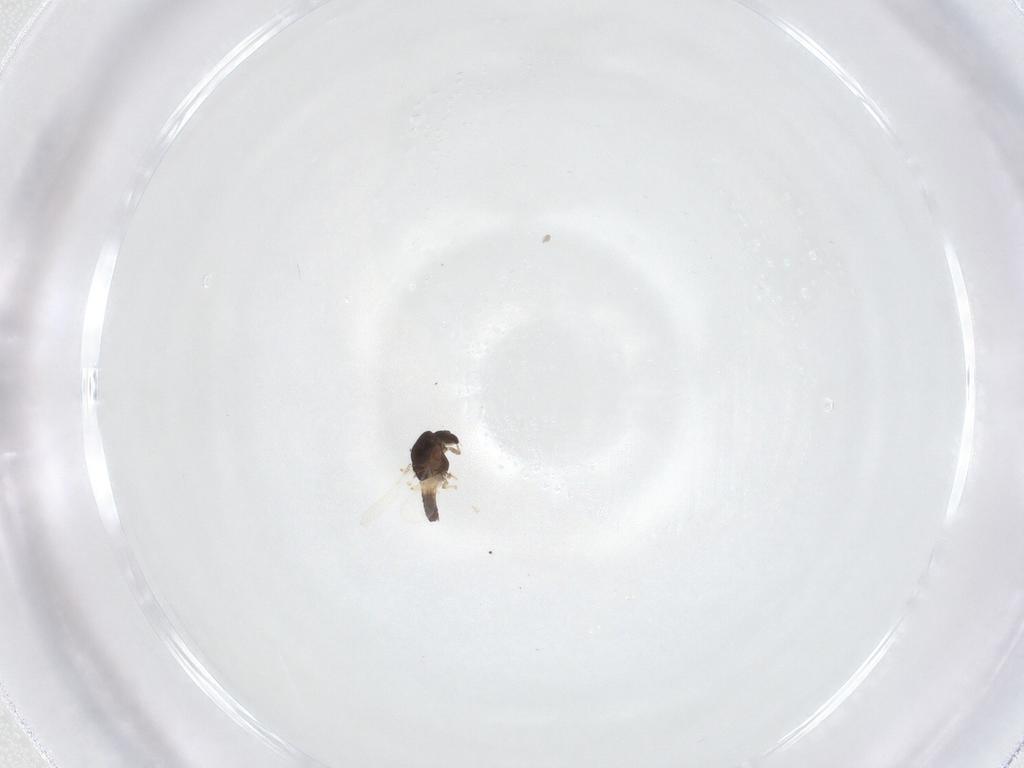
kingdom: Animalia
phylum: Arthropoda
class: Insecta
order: Diptera
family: Chironomidae
